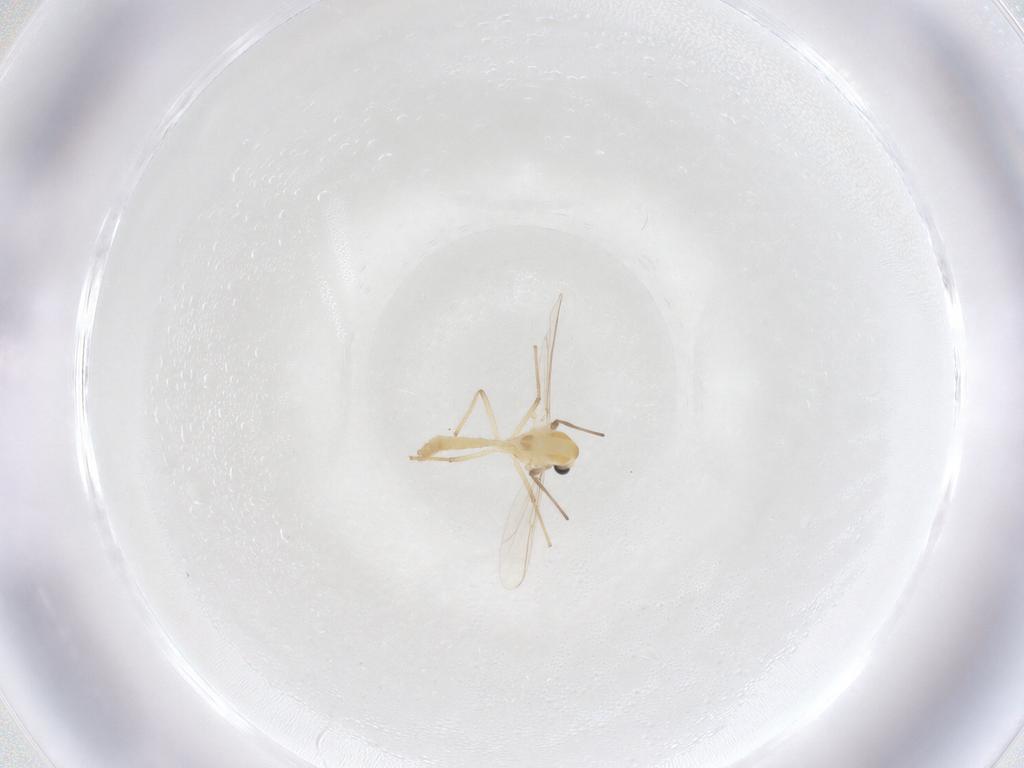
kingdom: Animalia
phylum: Arthropoda
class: Insecta
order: Diptera
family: Chironomidae
